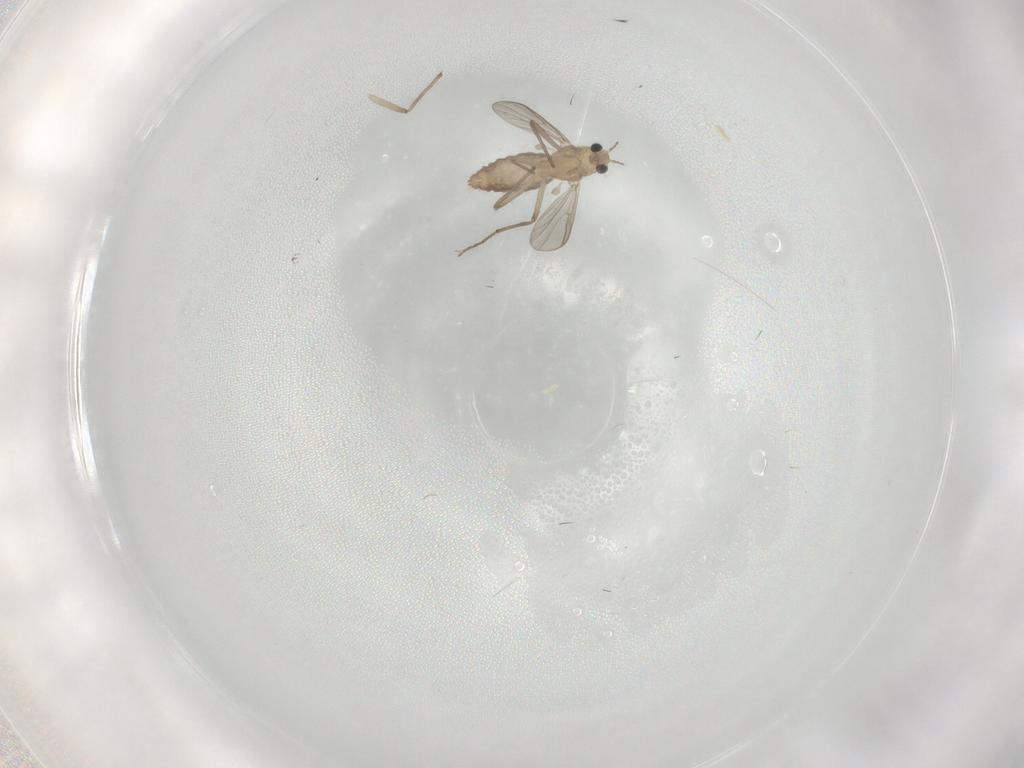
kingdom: Animalia
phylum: Arthropoda
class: Insecta
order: Diptera
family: Chironomidae
